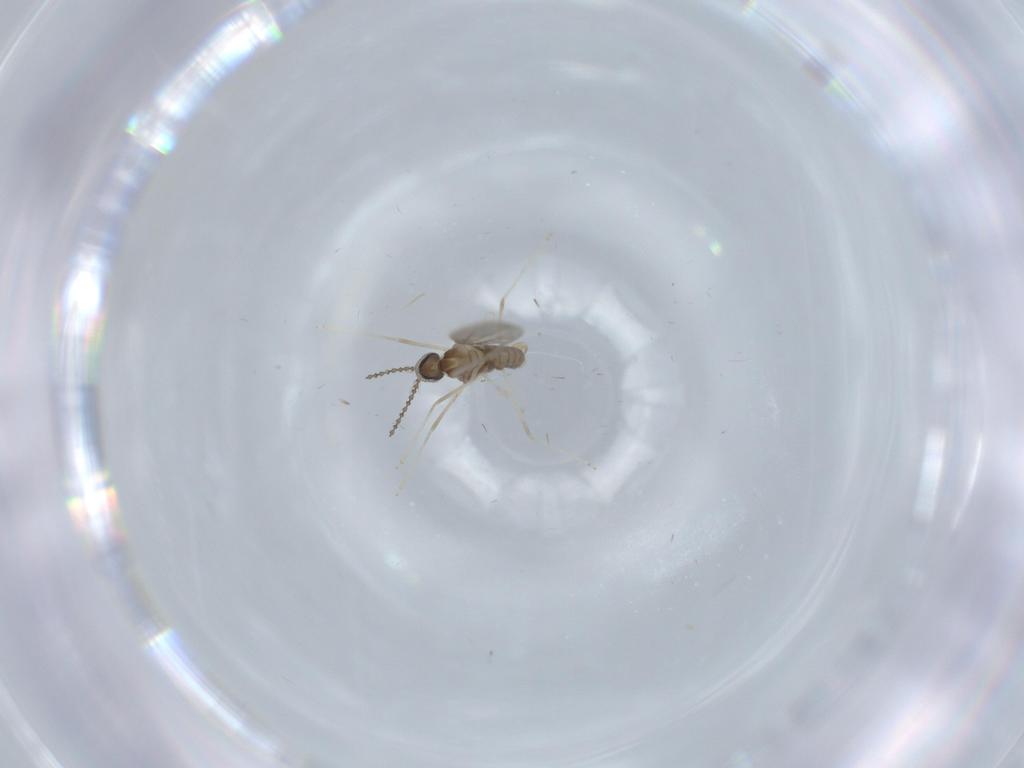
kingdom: Animalia
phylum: Arthropoda
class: Insecta
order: Diptera
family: Cecidomyiidae
